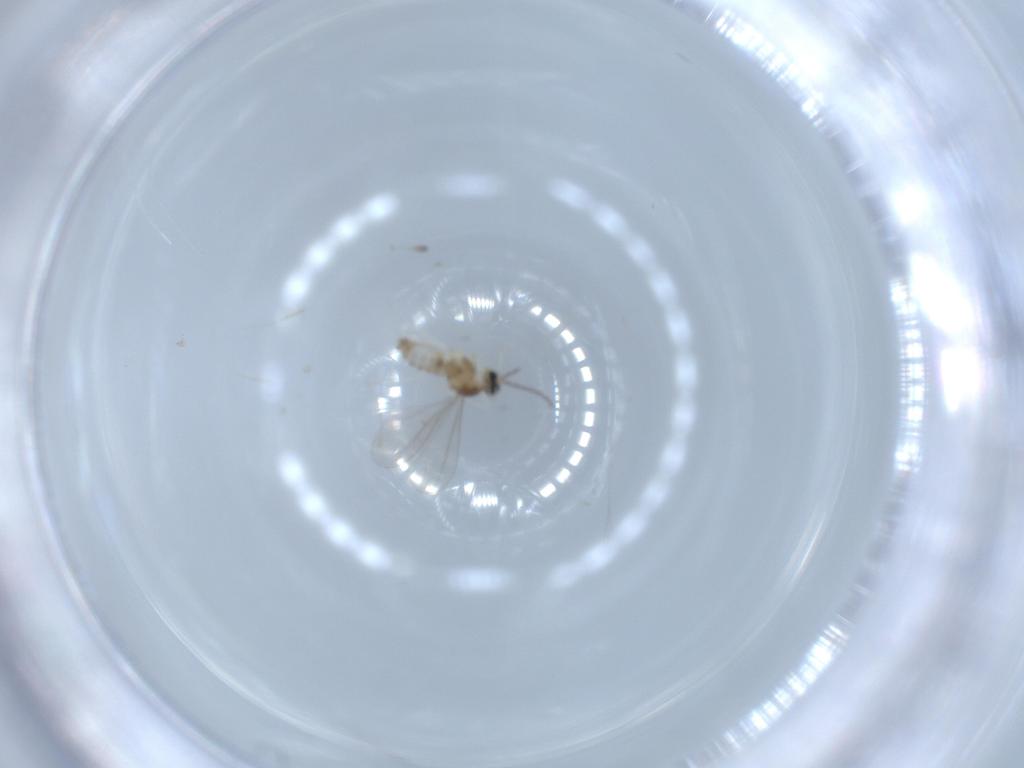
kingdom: Animalia
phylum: Arthropoda
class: Insecta
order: Diptera
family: Cecidomyiidae
